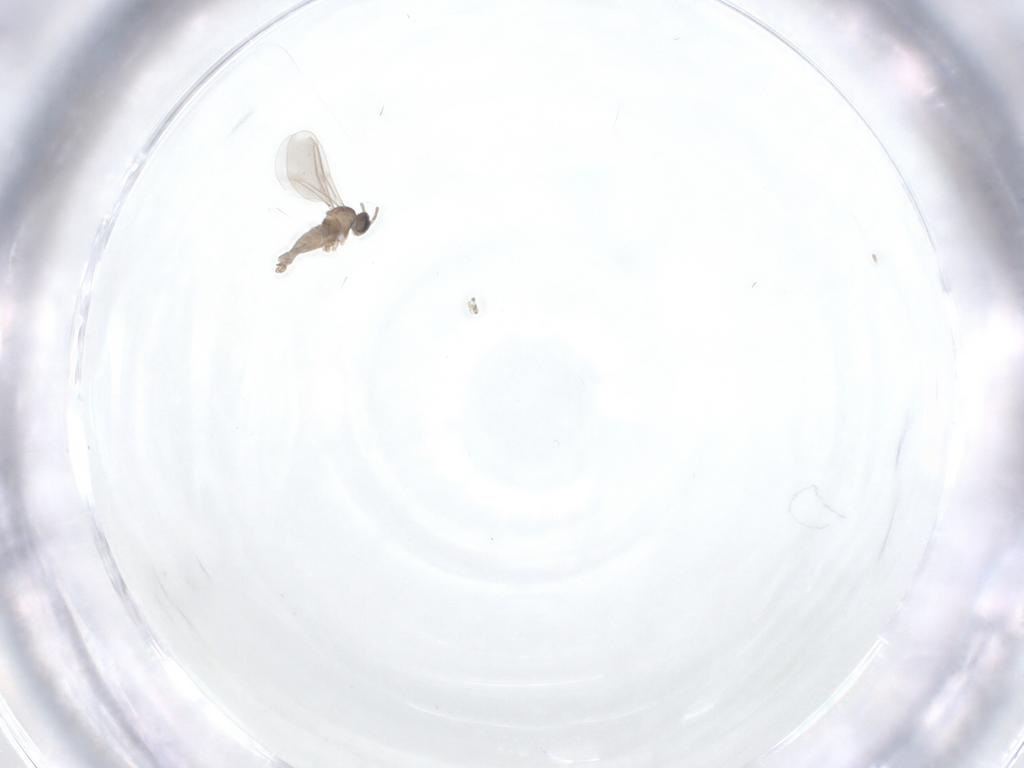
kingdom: Animalia
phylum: Arthropoda
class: Insecta
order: Diptera
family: Cecidomyiidae
